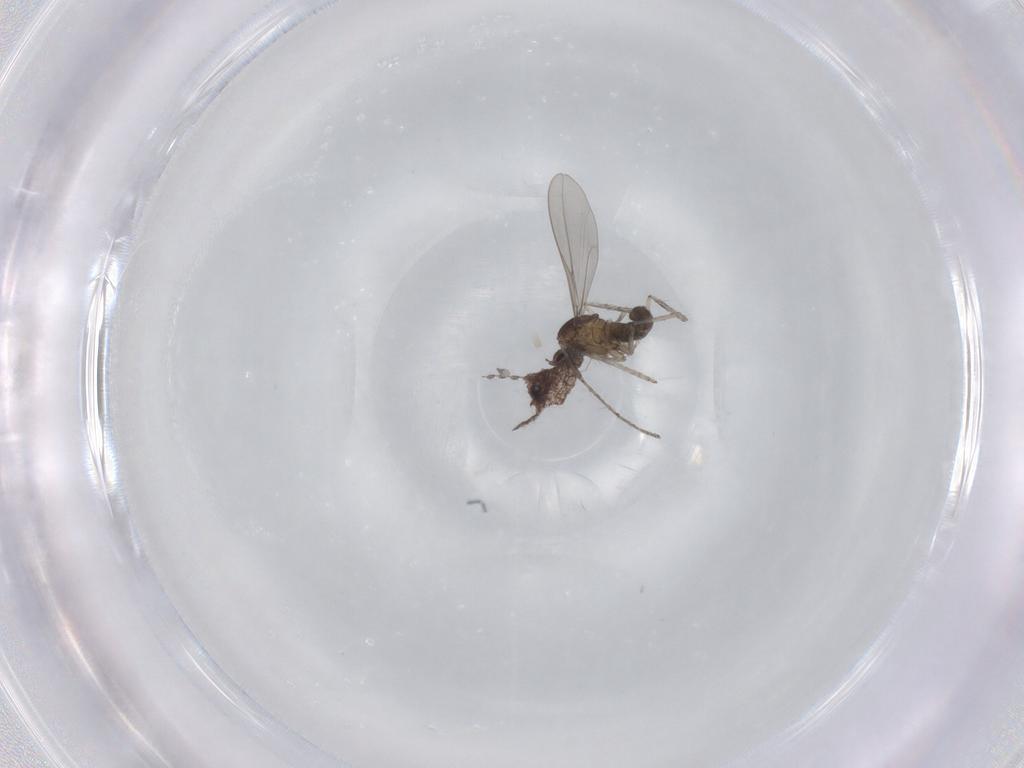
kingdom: Animalia
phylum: Arthropoda
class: Insecta
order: Diptera
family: Cecidomyiidae
